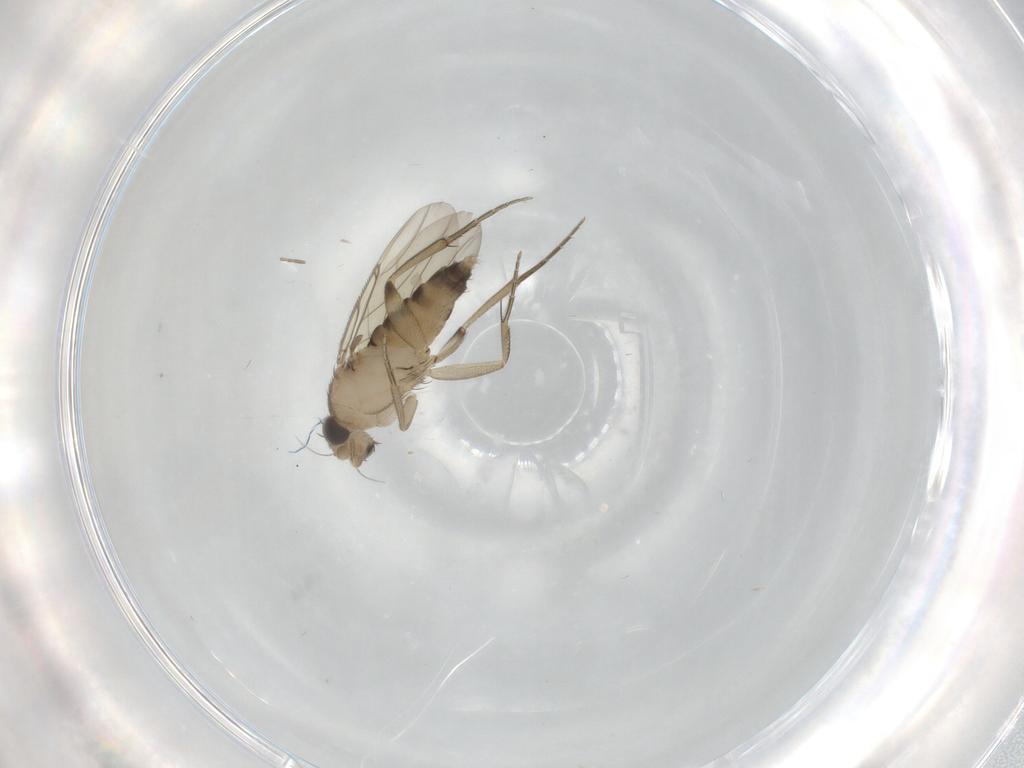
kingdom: Animalia
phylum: Arthropoda
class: Insecta
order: Diptera
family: Phoridae
